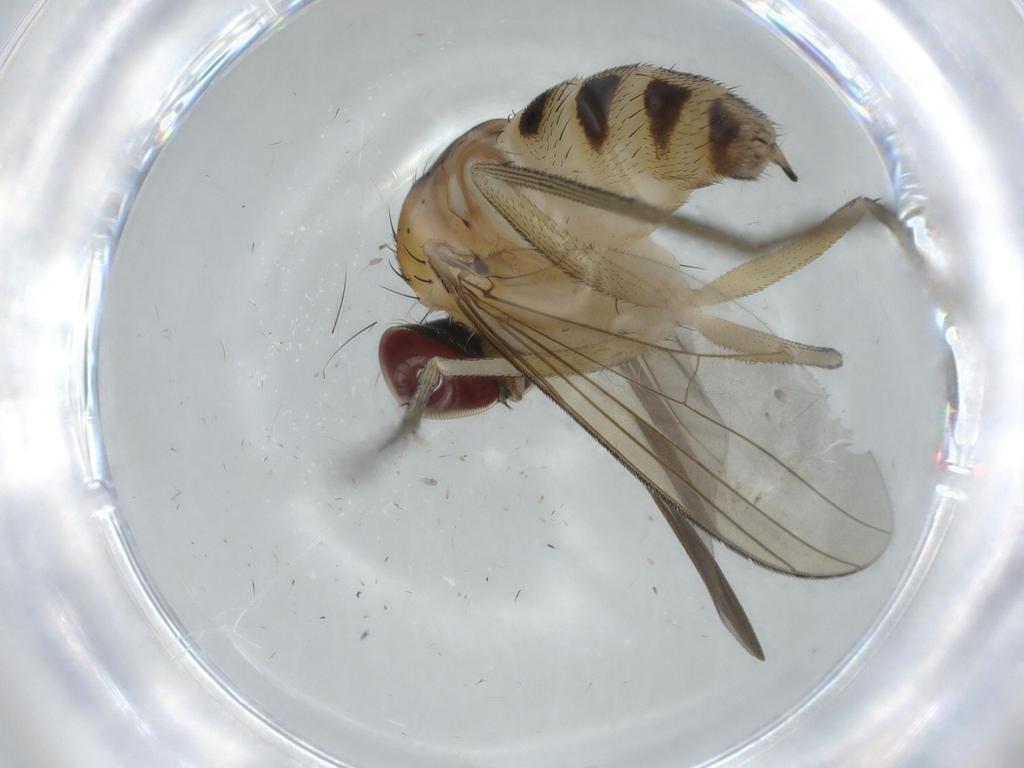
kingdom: Animalia
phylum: Arthropoda
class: Insecta
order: Diptera
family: Dolichopodidae
